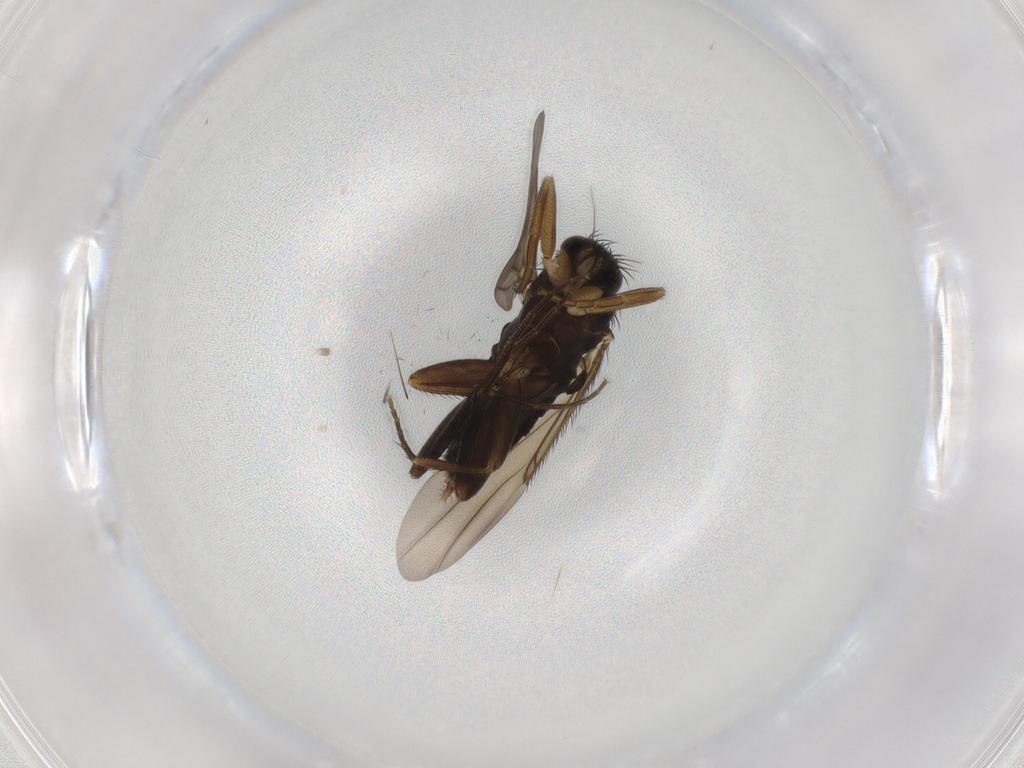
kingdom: Animalia
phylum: Arthropoda
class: Insecta
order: Diptera
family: Phoridae
